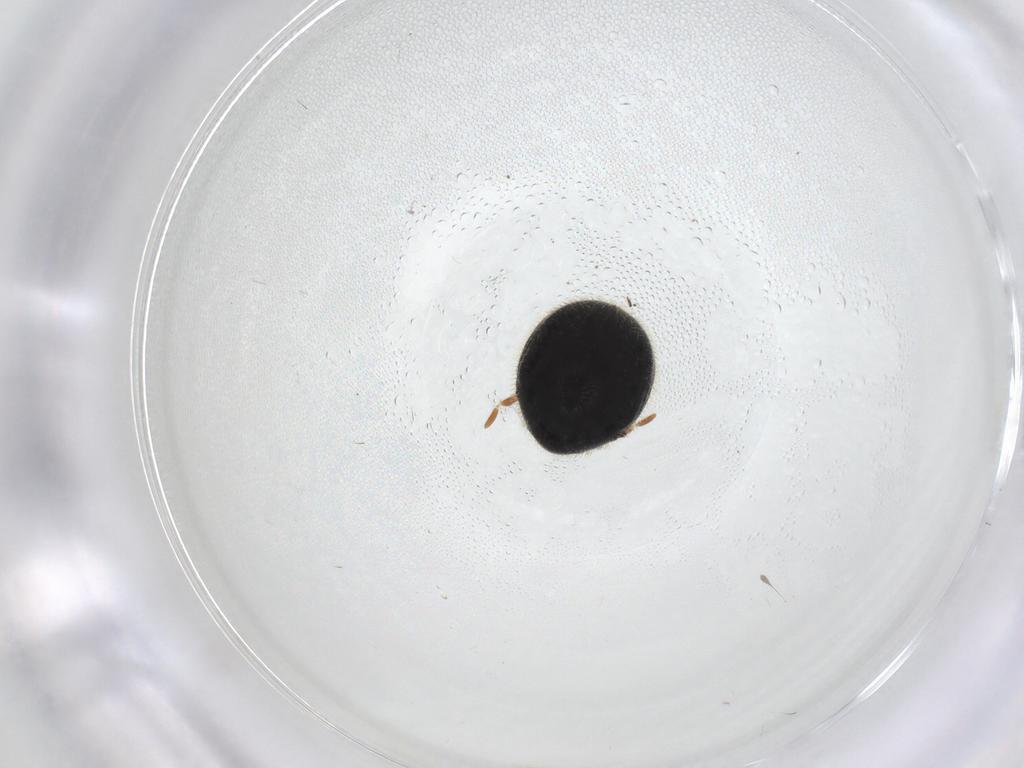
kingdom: Animalia
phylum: Arthropoda
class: Insecta
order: Coleoptera
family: Ptinidae
